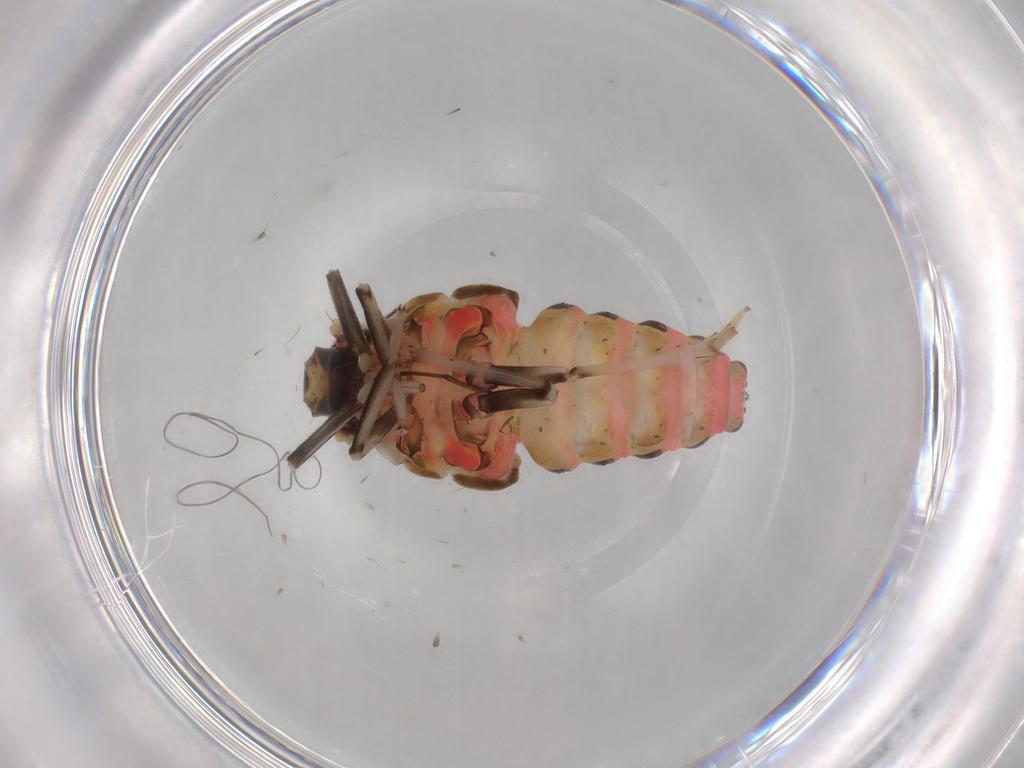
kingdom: Animalia
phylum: Arthropoda
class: Insecta
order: Hemiptera
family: Issidae
